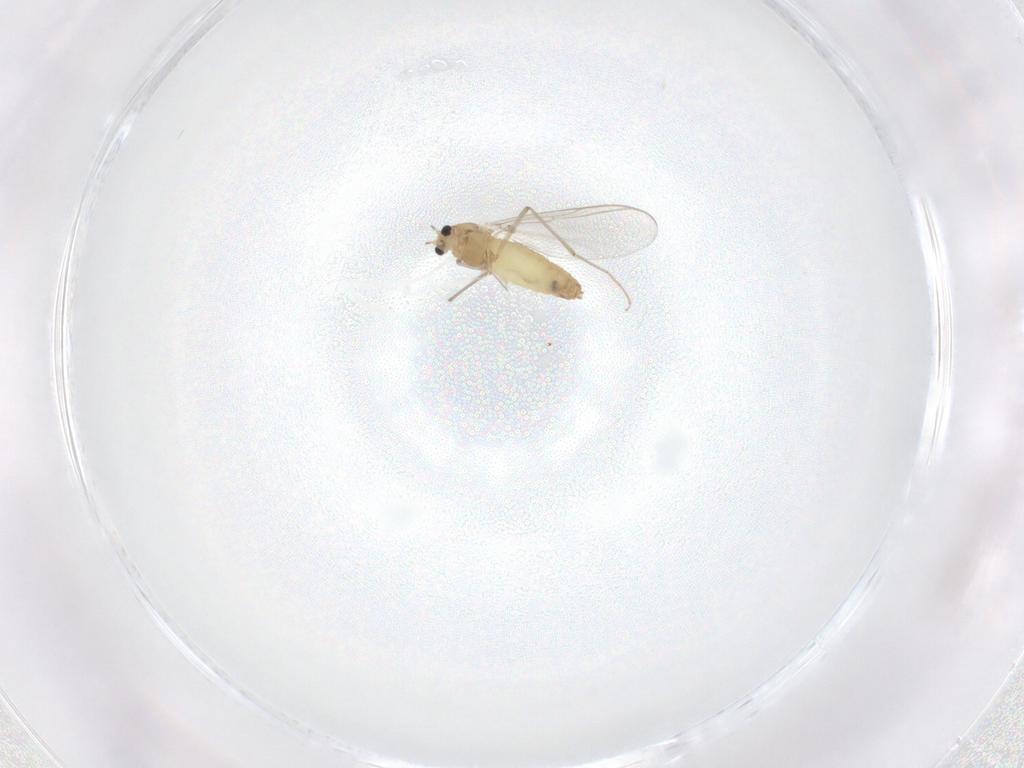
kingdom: Animalia
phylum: Arthropoda
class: Insecta
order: Diptera
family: Chironomidae
